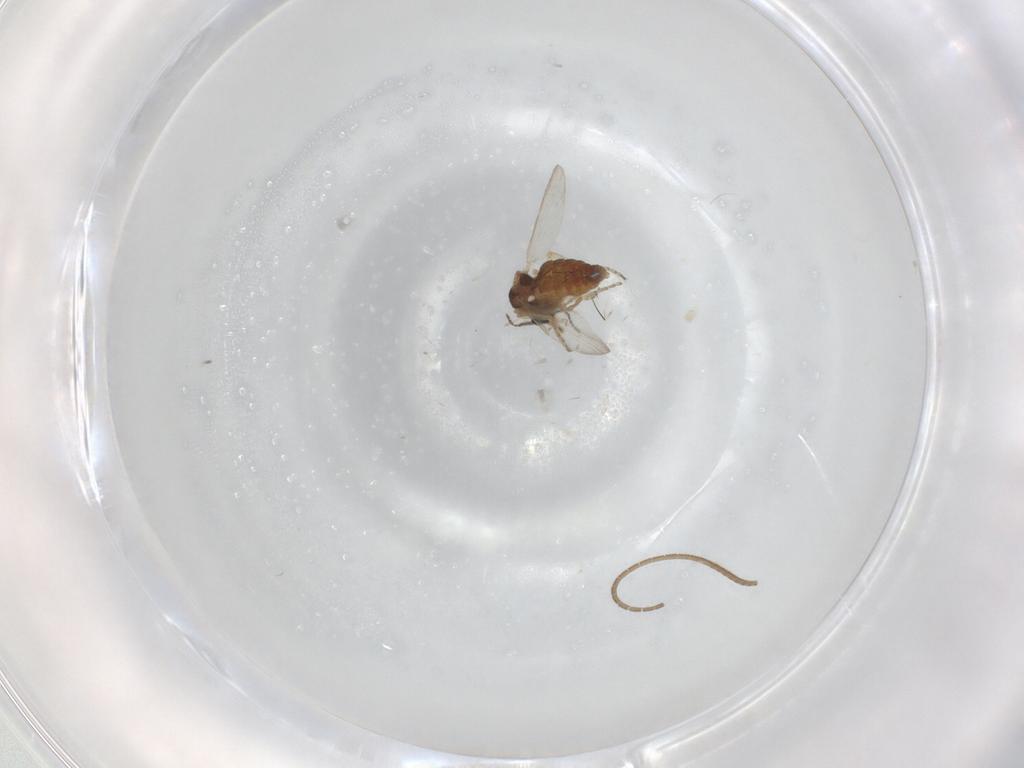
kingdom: Animalia
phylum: Arthropoda
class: Insecta
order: Diptera
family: Ceratopogonidae
